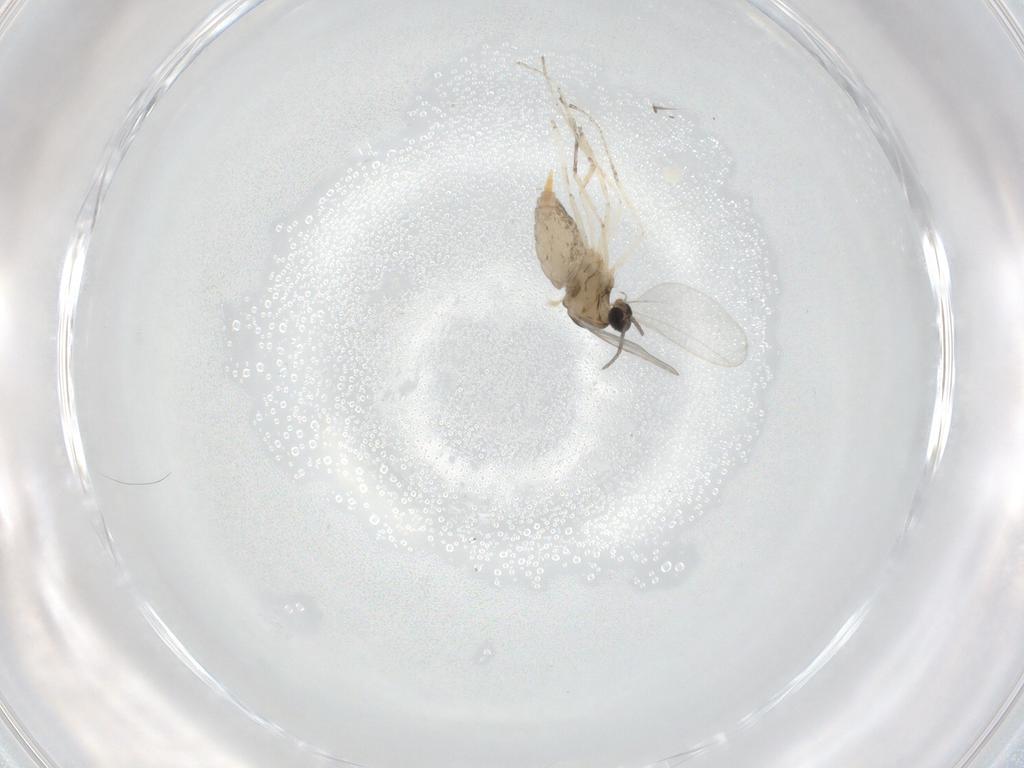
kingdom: Animalia
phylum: Arthropoda
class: Insecta
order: Diptera
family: Cecidomyiidae
